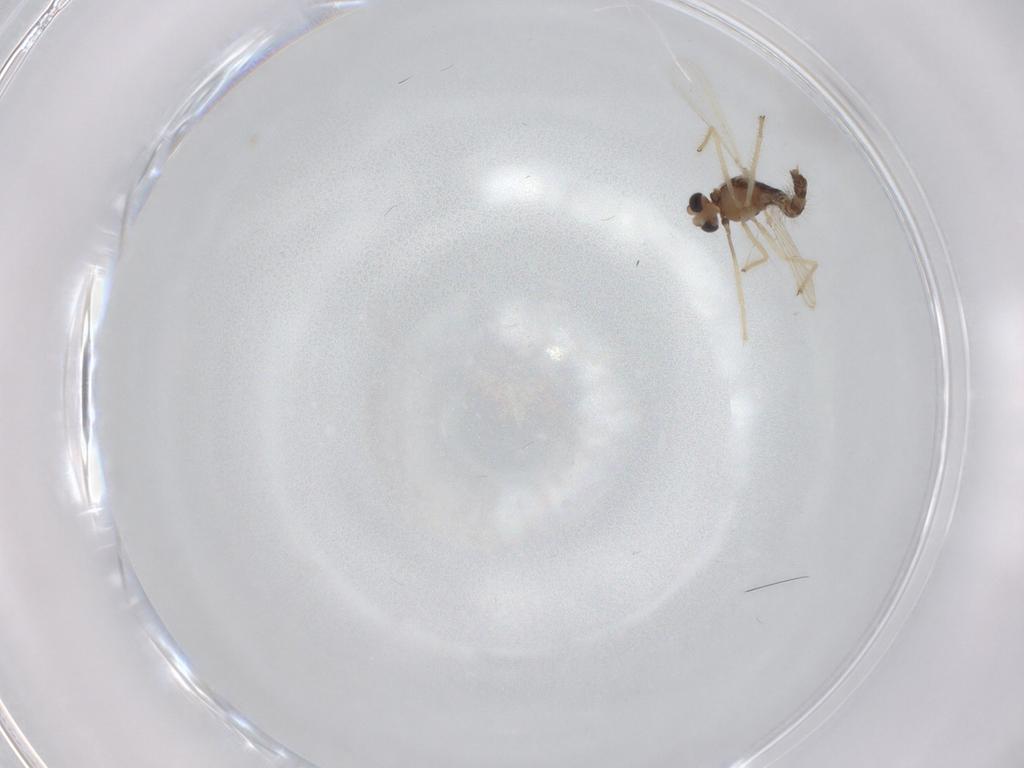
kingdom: Animalia
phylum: Arthropoda
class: Insecta
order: Diptera
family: Chironomidae
